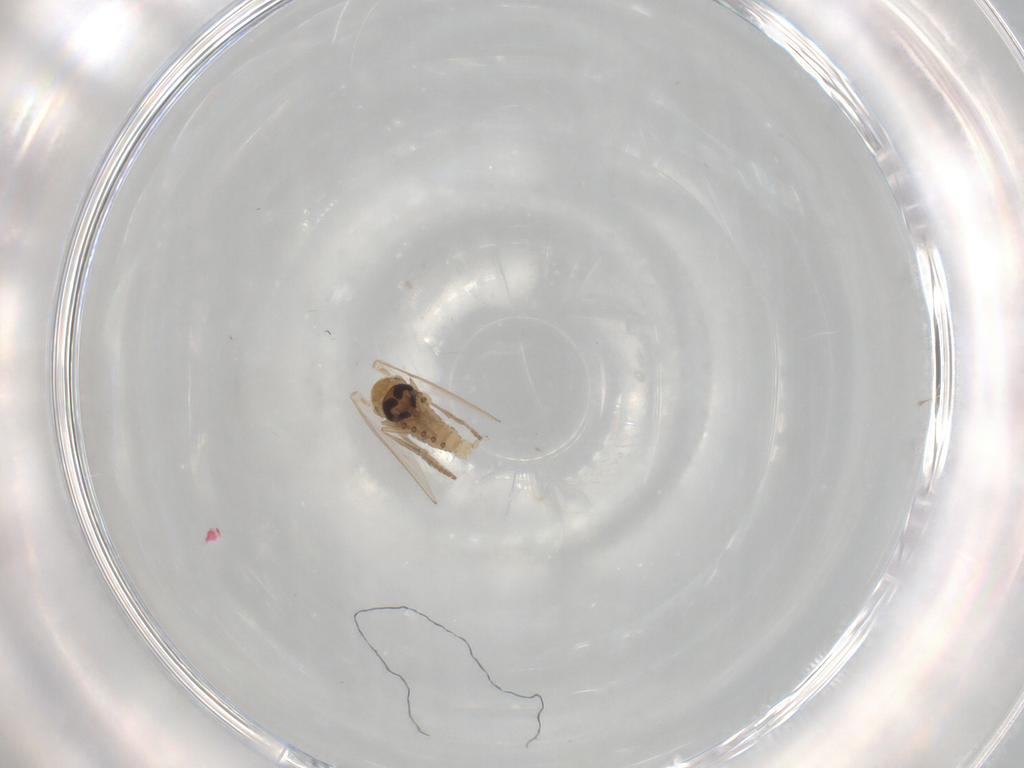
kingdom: Animalia
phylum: Arthropoda
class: Insecta
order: Diptera
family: Psychodidae
